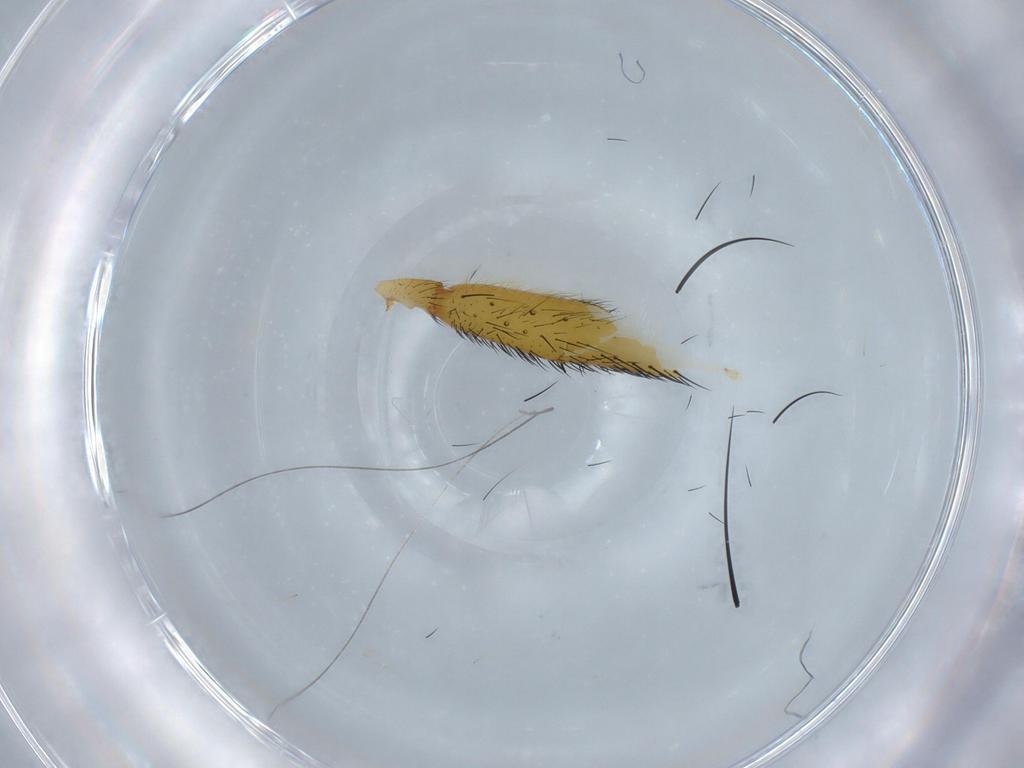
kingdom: Animalia
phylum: Arthropoda
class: Insecta
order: Diptera
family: Tachinidae
